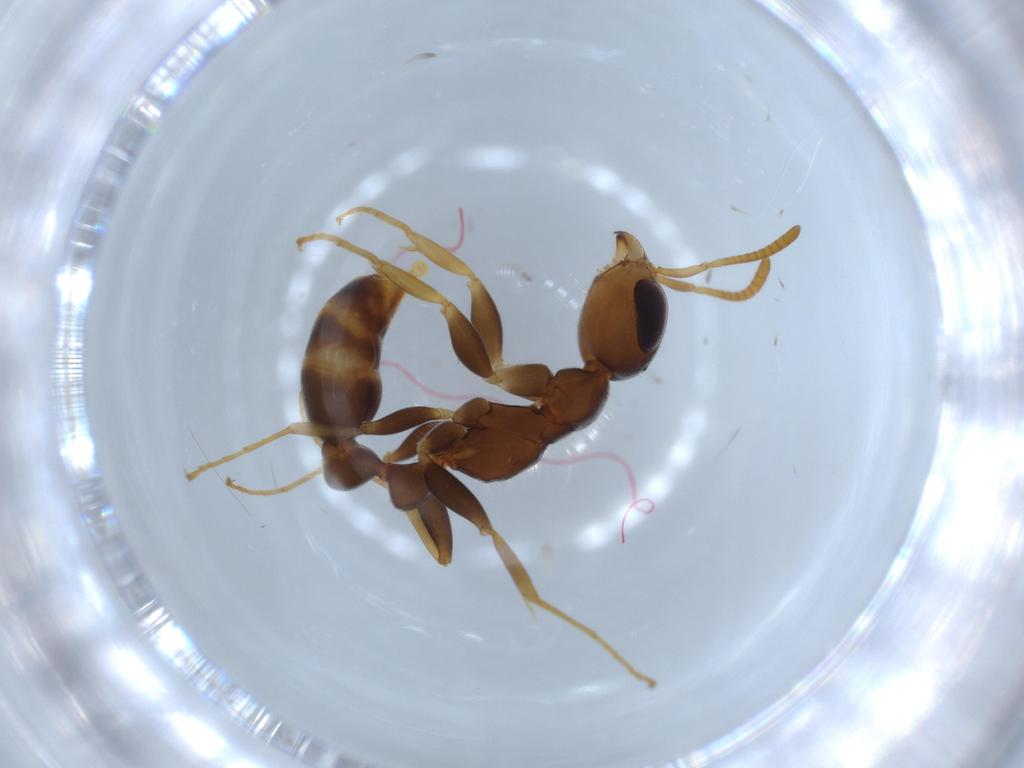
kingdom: Animalia
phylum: Arthropoda
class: Insecta
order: Hymenoptera
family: Formicidae
